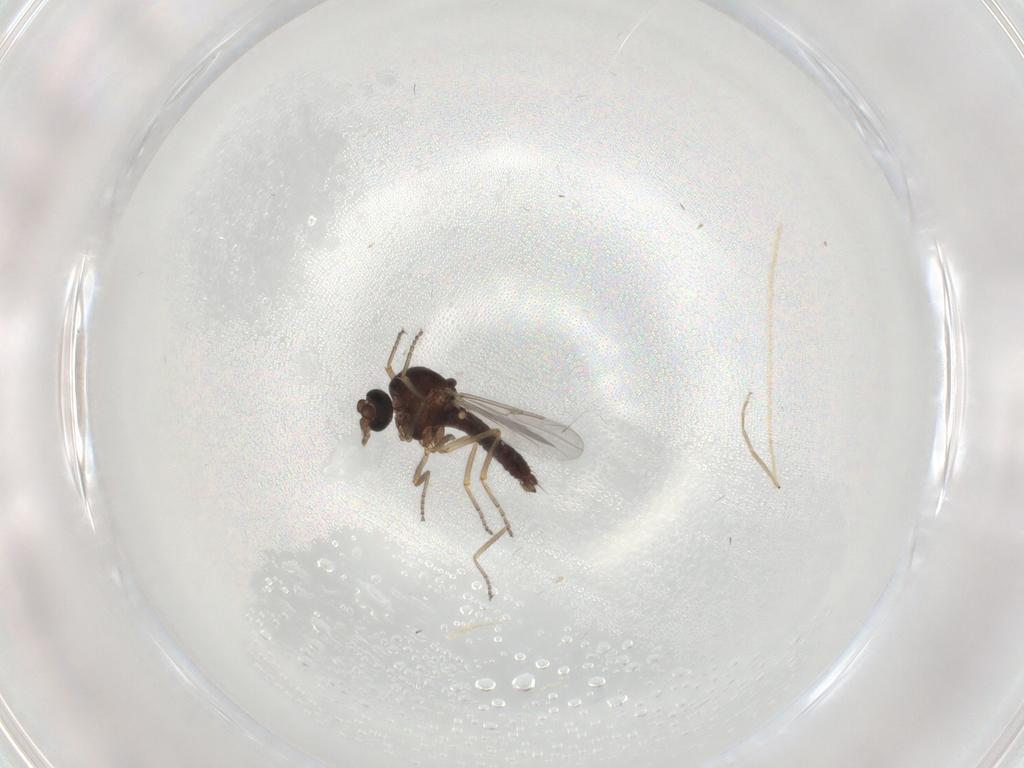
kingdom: Animalia
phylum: Arthropoda
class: Insecta
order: Diptera
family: Ceratopogonidae
